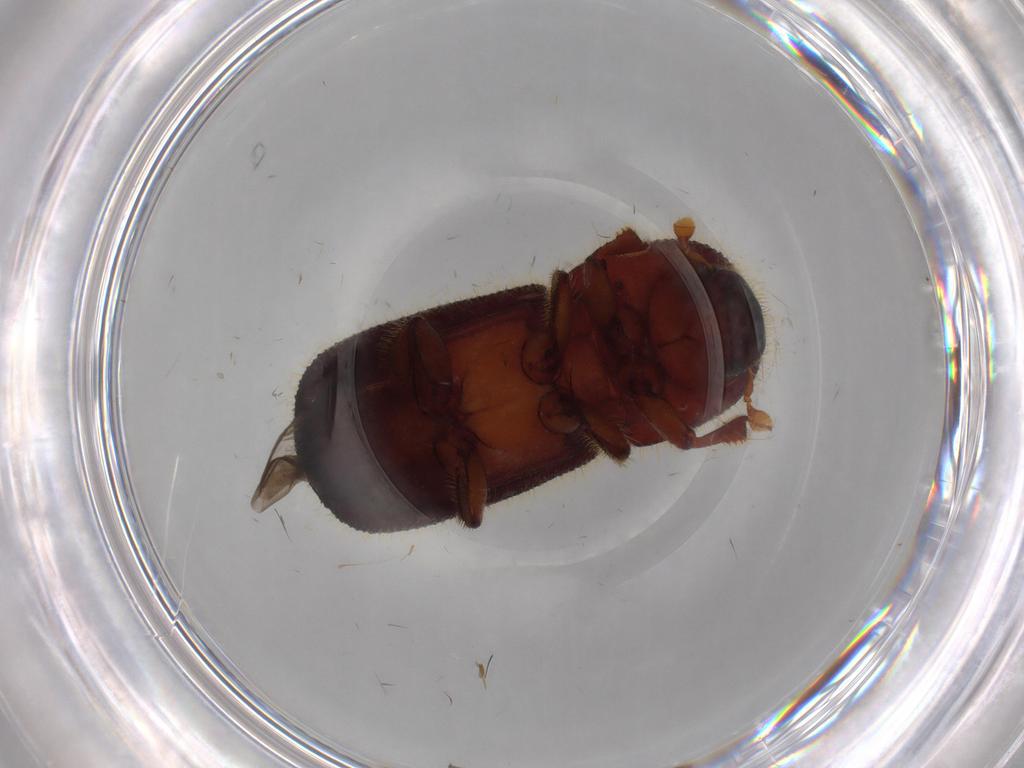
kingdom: Animalia
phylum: Arthropoda
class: Insecta
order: Coleoptera
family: Curculionidae
